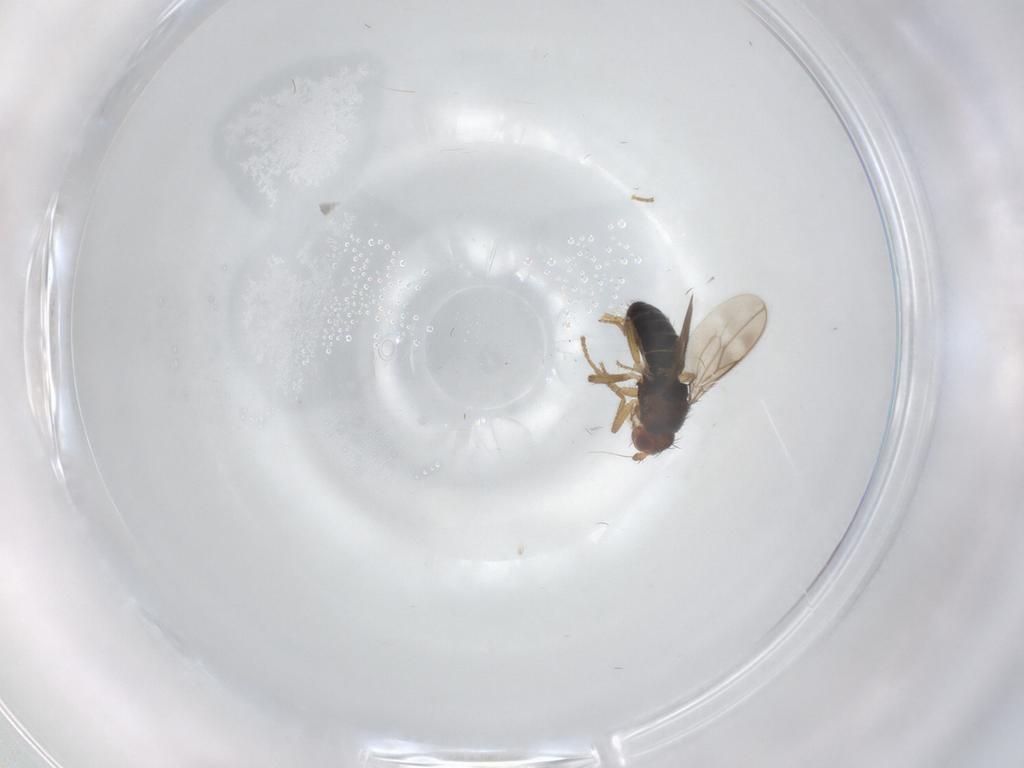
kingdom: Animalia
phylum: Arthropoda
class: Insecta
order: Diptera
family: Sphaeroceridae
